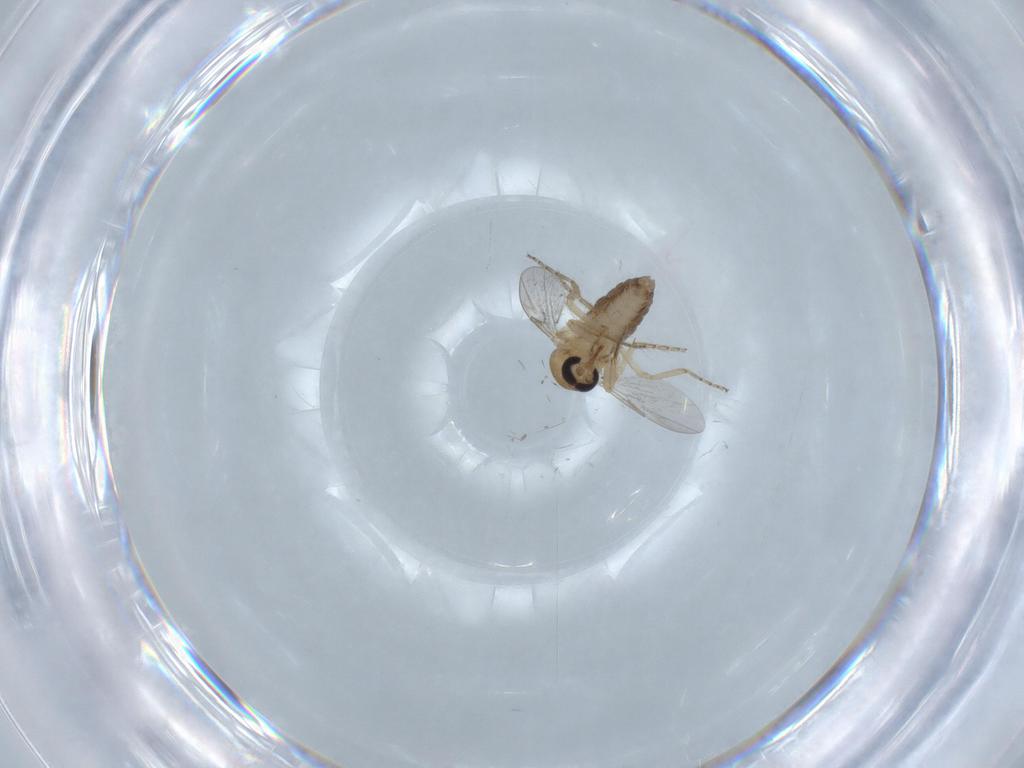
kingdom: Animalia
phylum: Arthropoda
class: Insecta
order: Diptera
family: Ceratopogonidae
